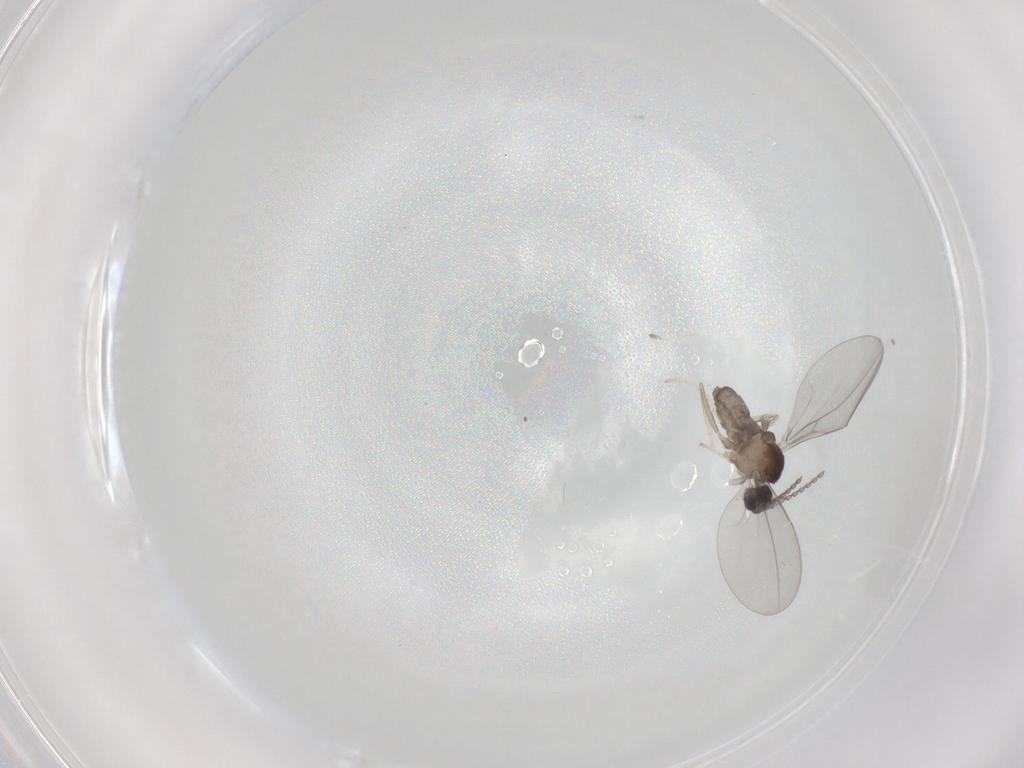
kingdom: Animalia
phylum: Arthropoda
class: Insecta
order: Diptera
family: Cecidomyiidae
